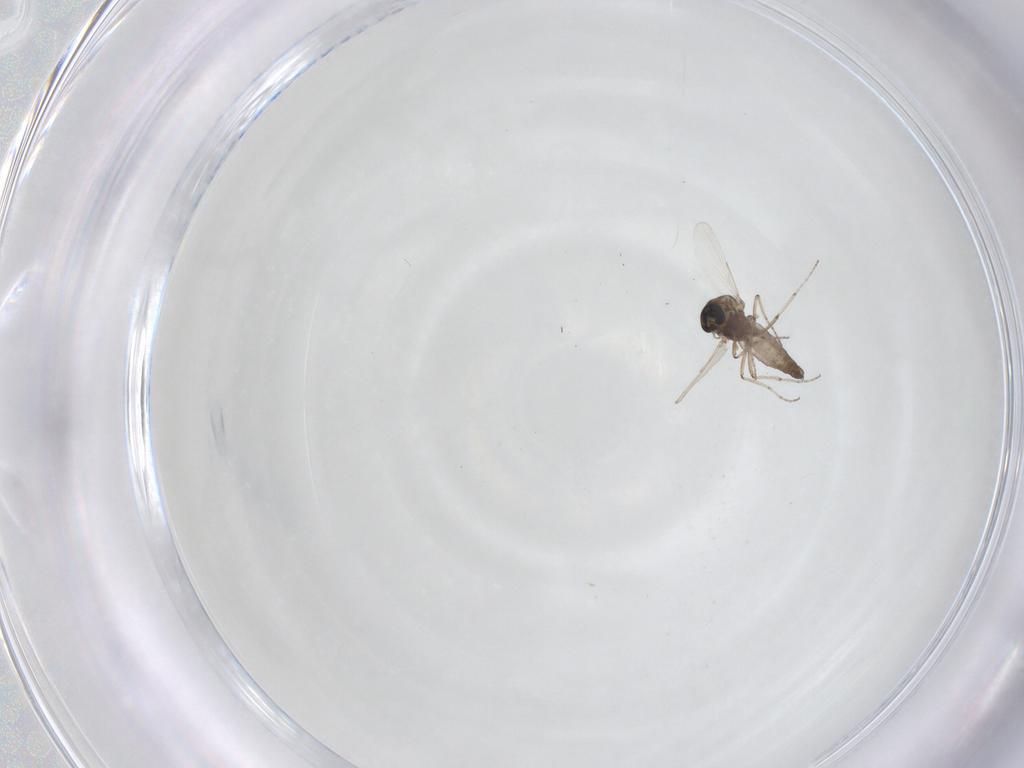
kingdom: Animalia
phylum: Arthropoda
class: Insecta
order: Diptera
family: Ceratopogonidae
